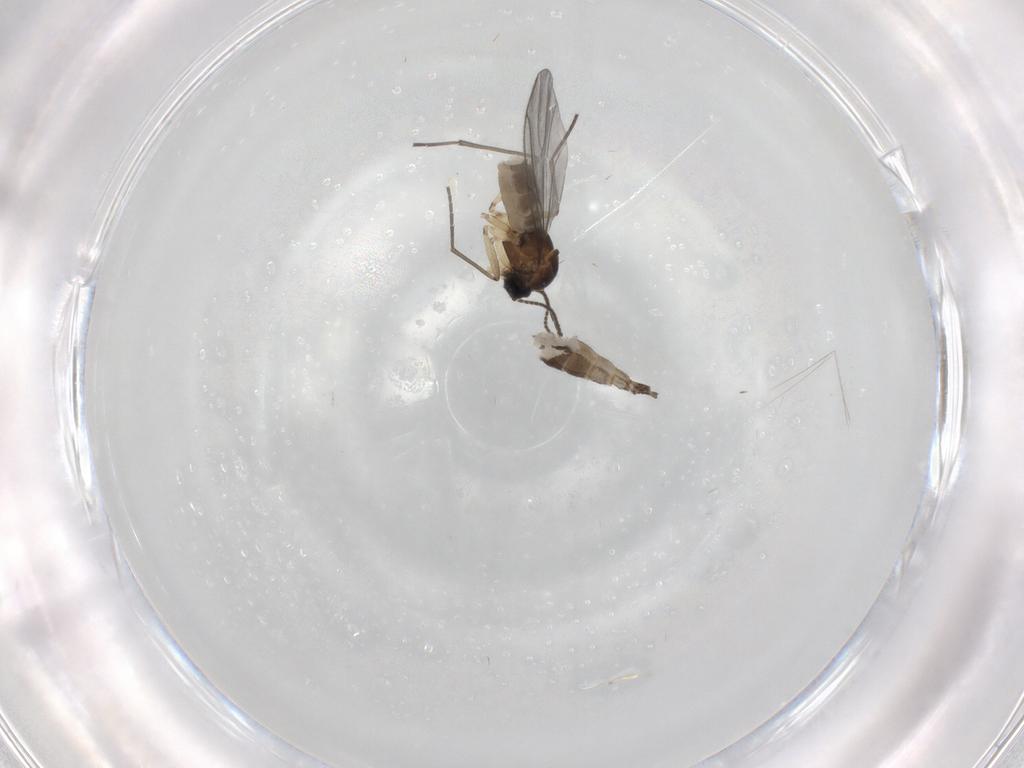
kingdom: Animalia
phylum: Arthropoda
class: Insecta
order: Diptera
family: Sciaridae
